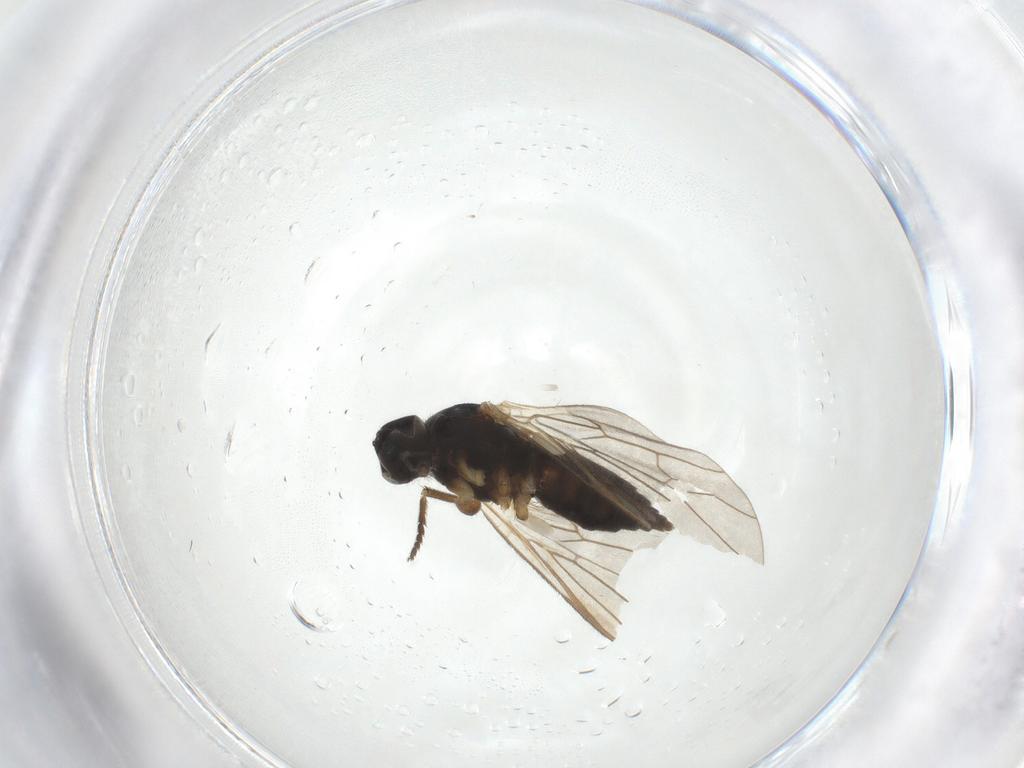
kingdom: Animalia
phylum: Arthropoda
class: Insecta
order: Diptera
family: Empididae
